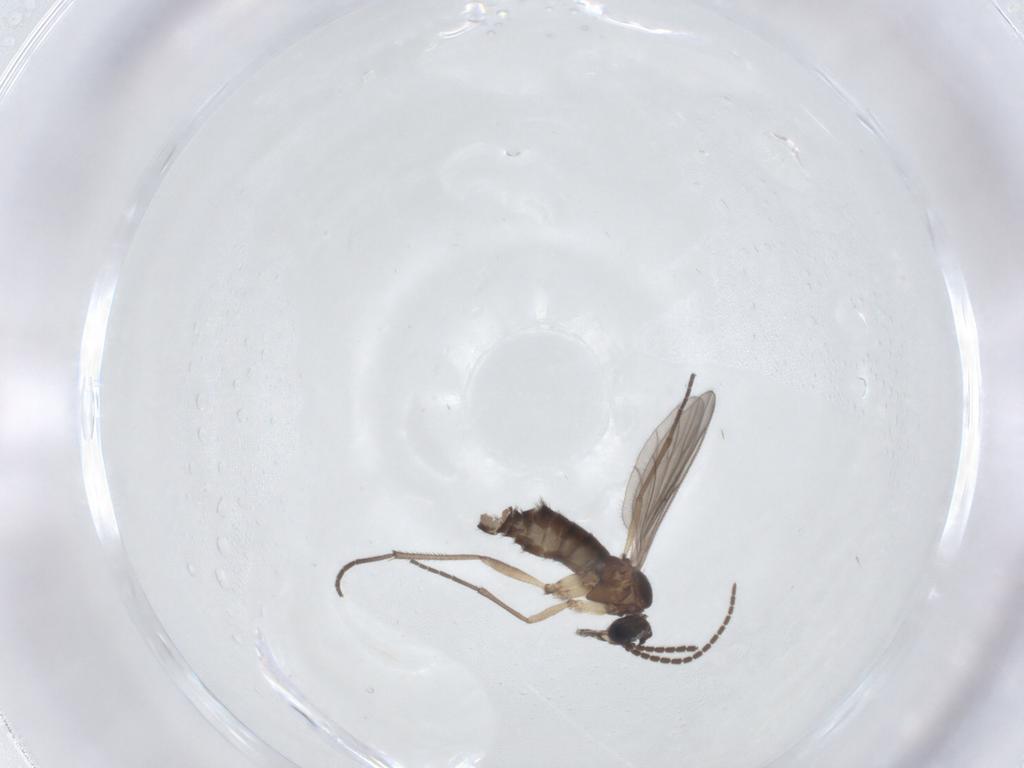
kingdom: Animalia
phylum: Arthropoda
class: Insecta
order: Diptera
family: Sciaridae
